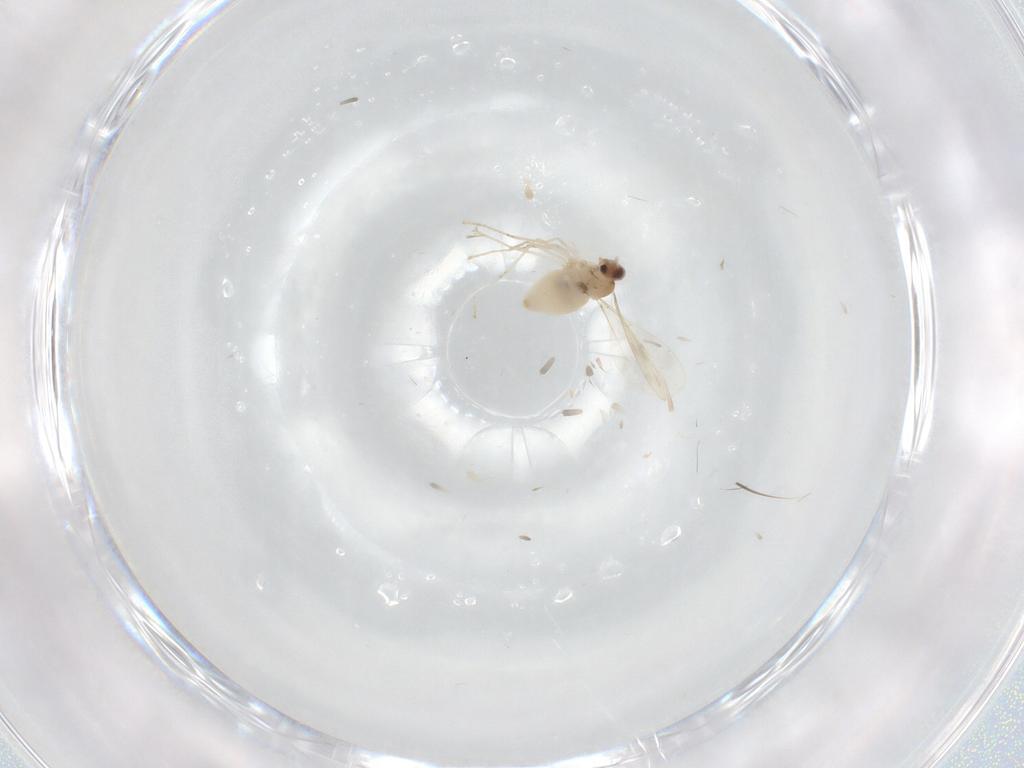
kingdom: Animalia
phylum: Arthropoda
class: Insecta
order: Diptera
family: Cecidomyiidae
